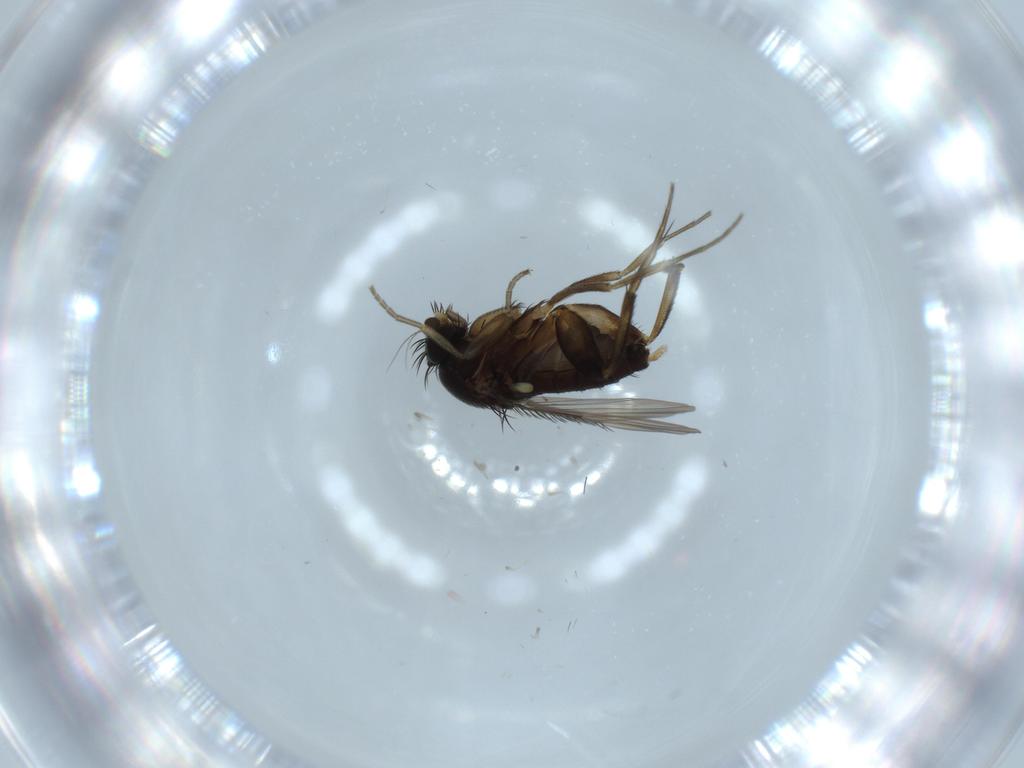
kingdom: Animalia
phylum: Arthropoda
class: Insecta
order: Diptera
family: Phoridae
